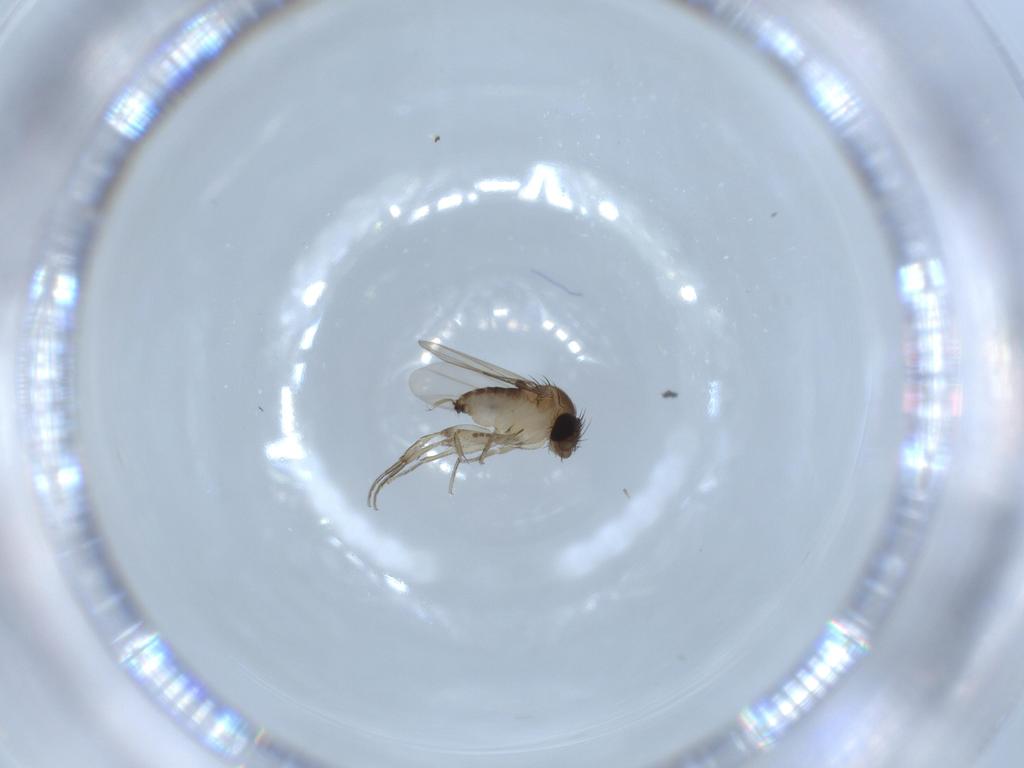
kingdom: Animalia
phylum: Arthropoda
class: Insecta
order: Diptera
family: Phoridae
